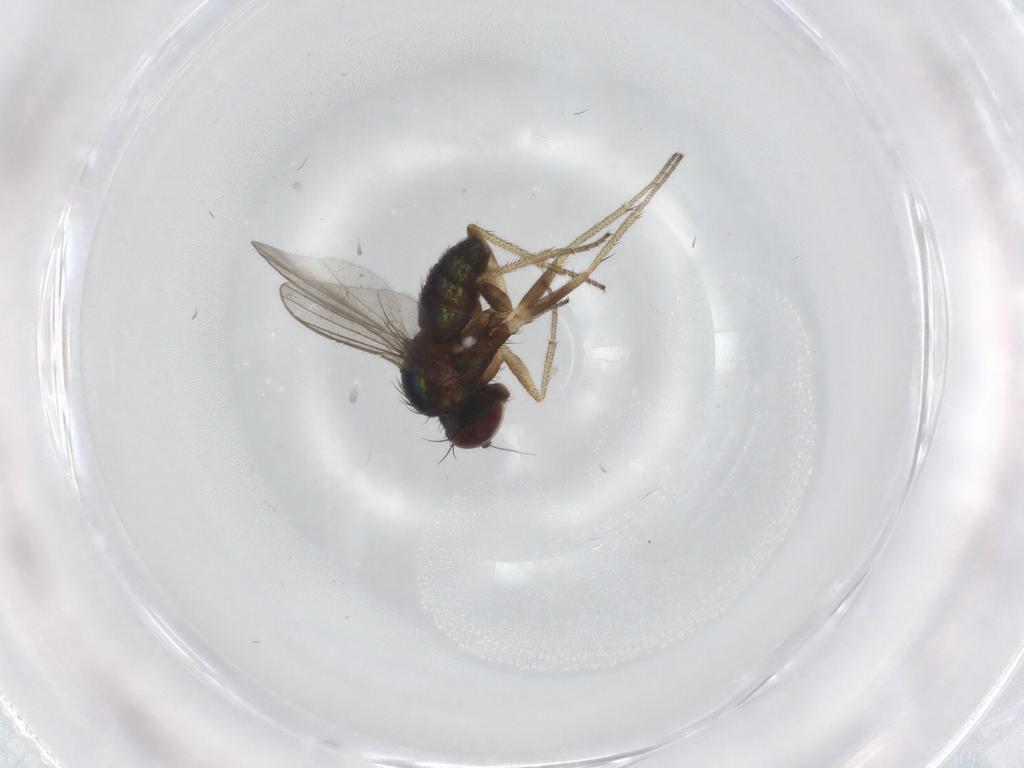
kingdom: Animalia
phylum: Arthropoda
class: Insecta
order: Diptera
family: Dolichopodidae
